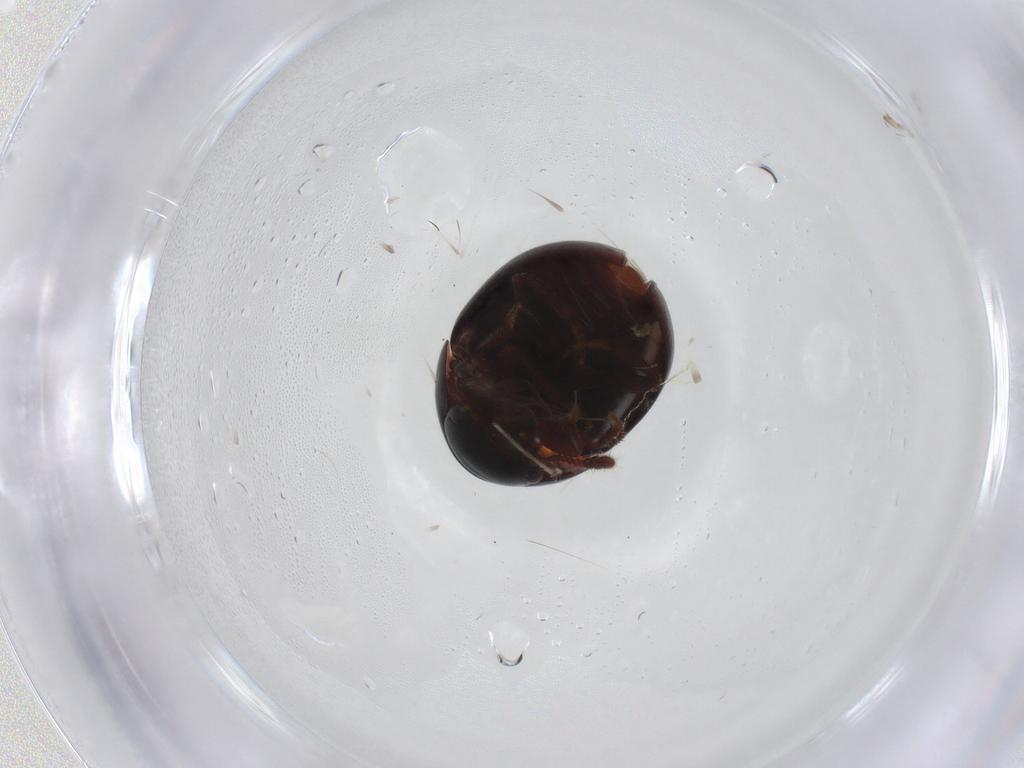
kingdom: Animalia
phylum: Arthropoda
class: Insecta
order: Coleoptera
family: Leiodidae
